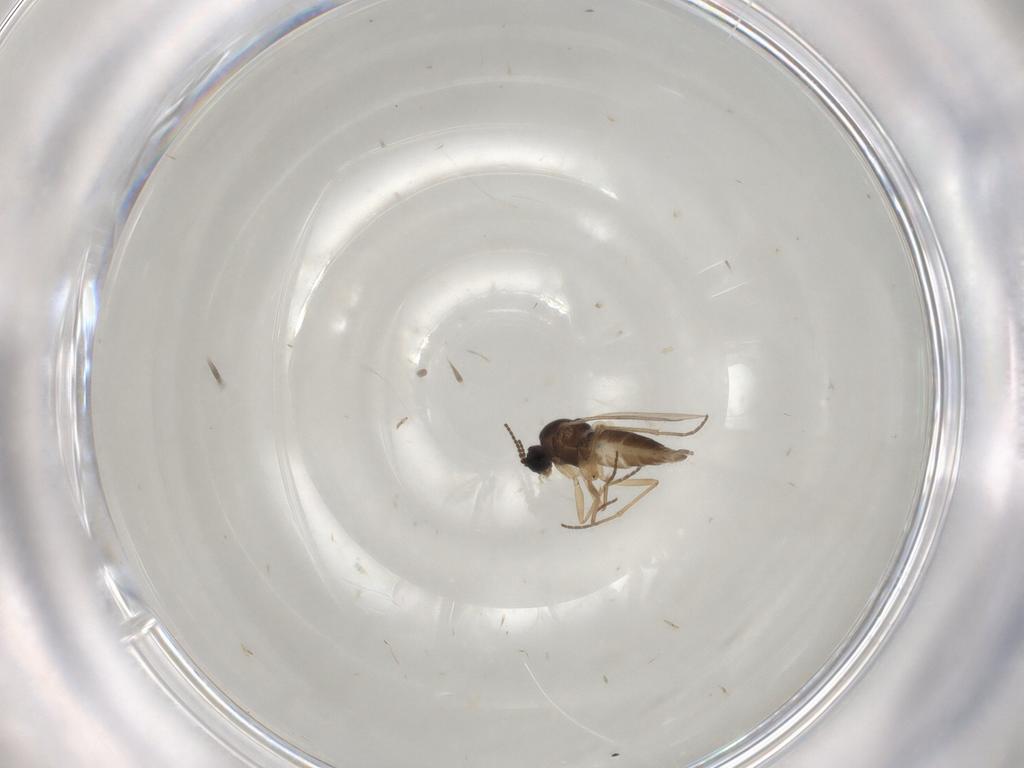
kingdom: Animalia
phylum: Arthropoda
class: Insecta
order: Diptera
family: Sciaridae
